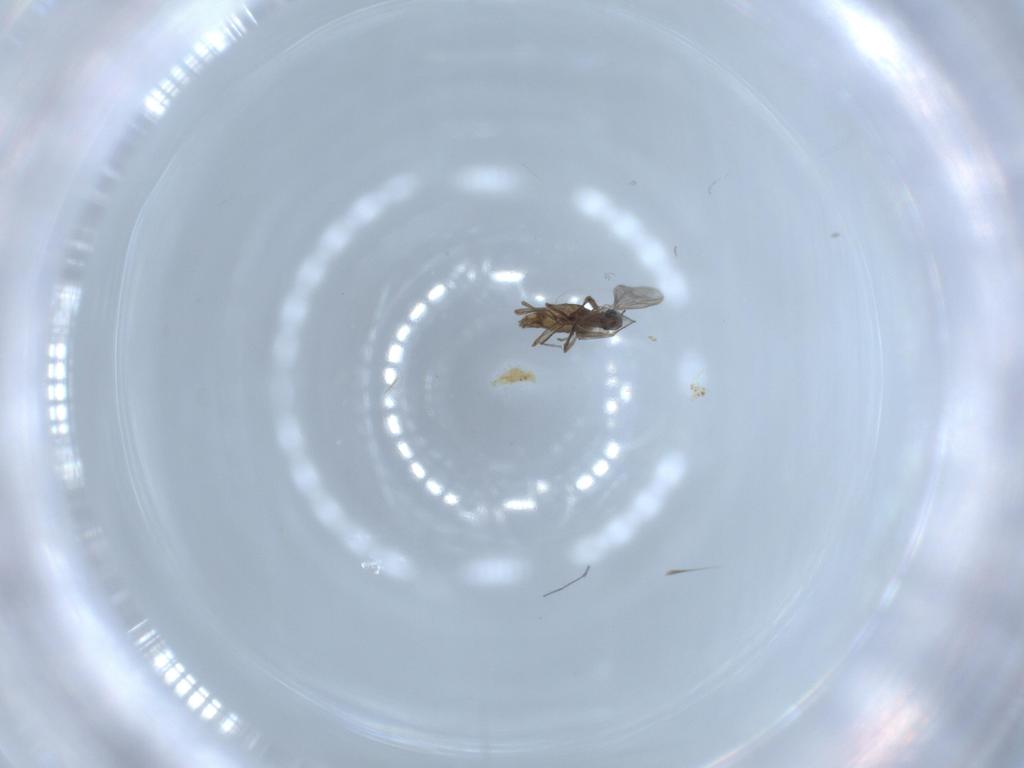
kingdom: Animalia
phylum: Arthropoda
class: Insecta
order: Diptera
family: Chironomidae
